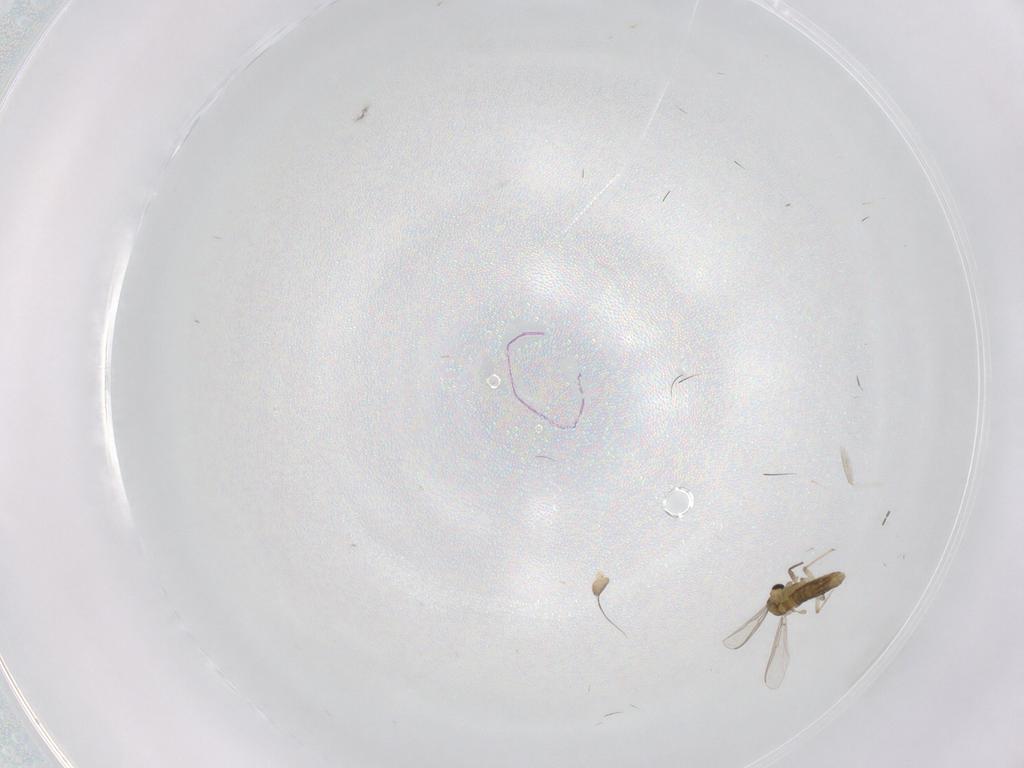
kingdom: Animalia
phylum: Arthropoda
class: Insecta
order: Diptera
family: Chironomidae
